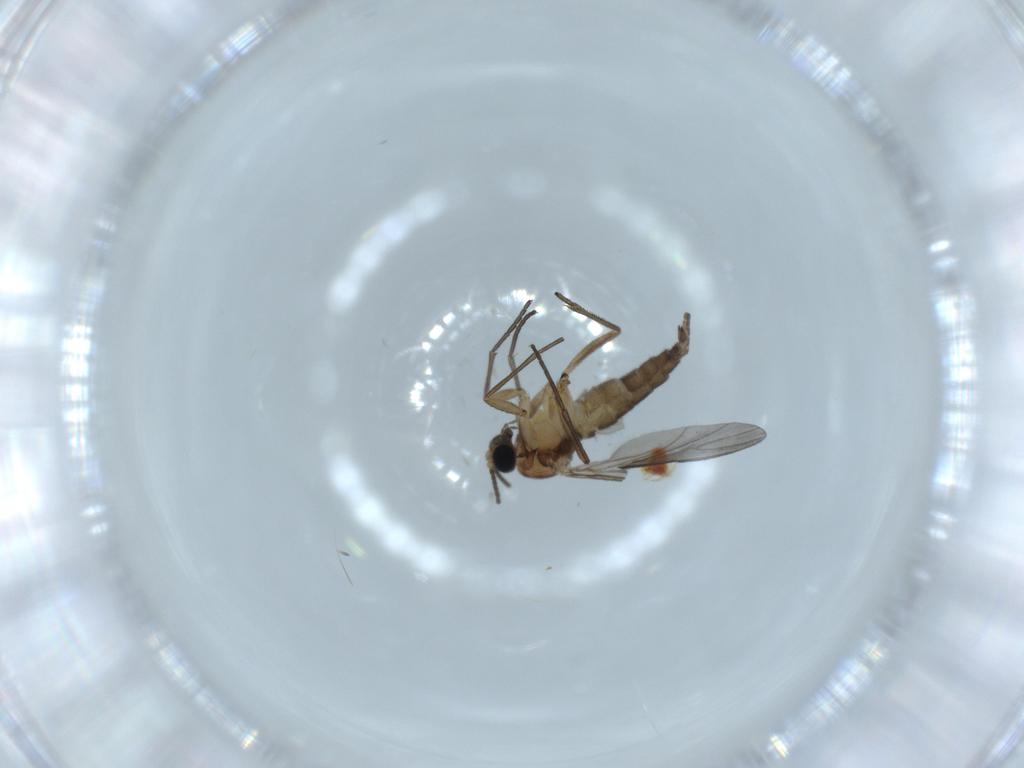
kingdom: Animalia
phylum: Arthropoda
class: Insecta
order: Diptera
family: Sciaridae
